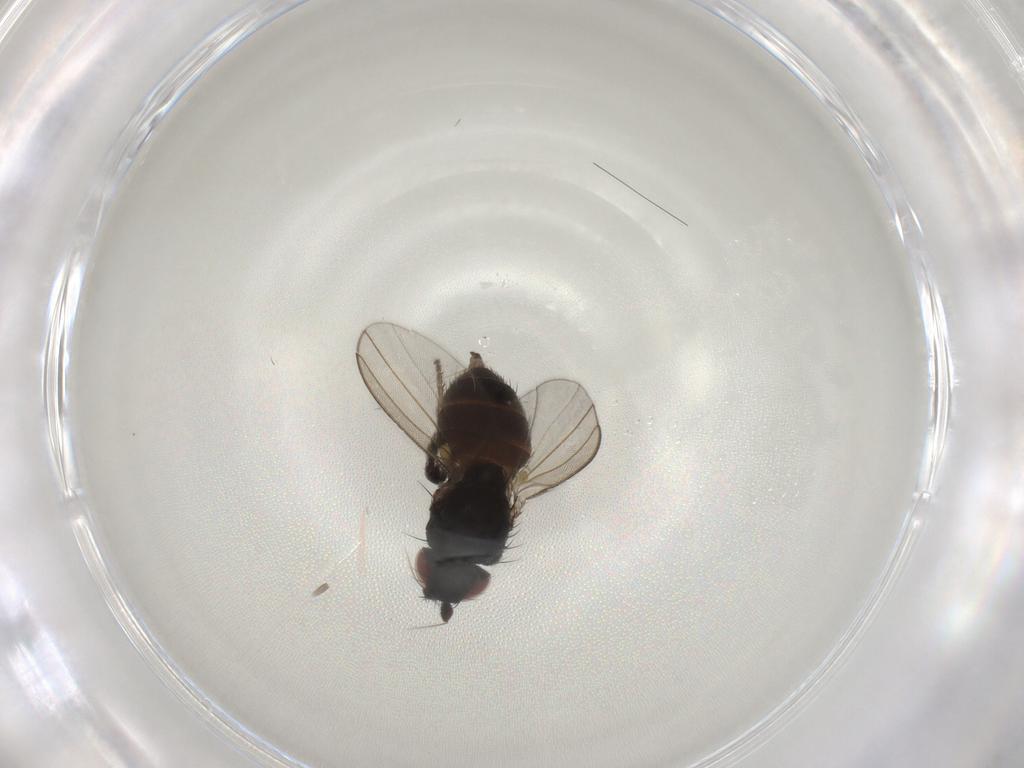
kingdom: Animalia
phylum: Arthropoda
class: Insecta
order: Diptera
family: Milichiidae
